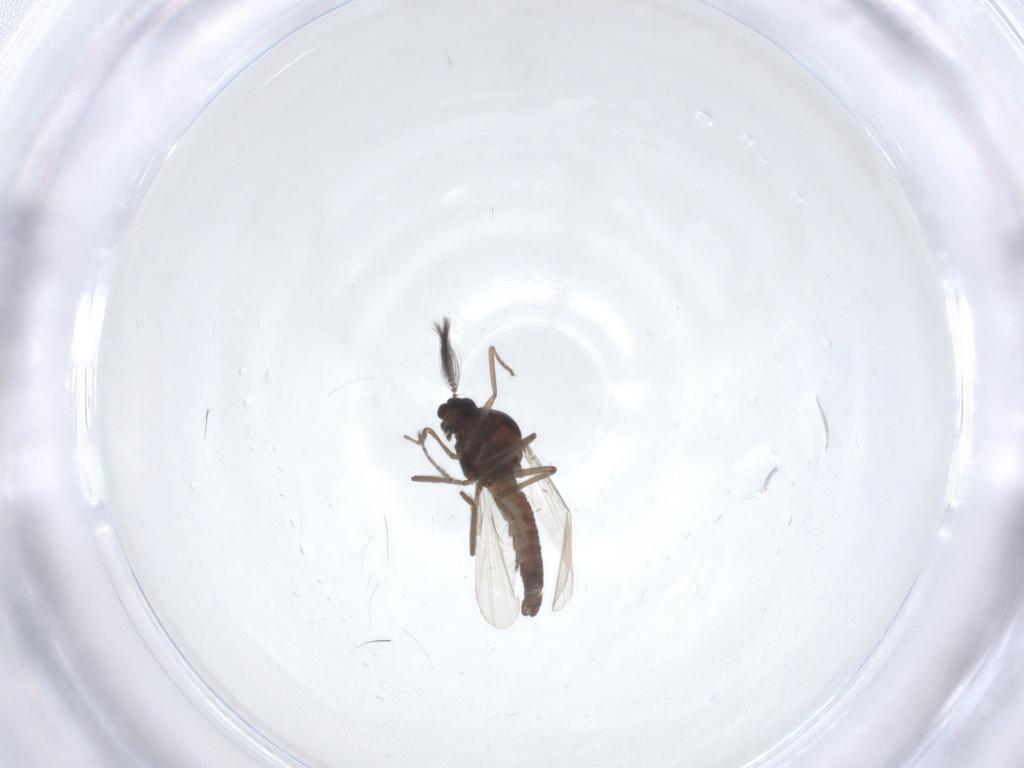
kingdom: Animalia
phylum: Arthropoda
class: Insecta
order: Diptera
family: Ceratopogonidae
